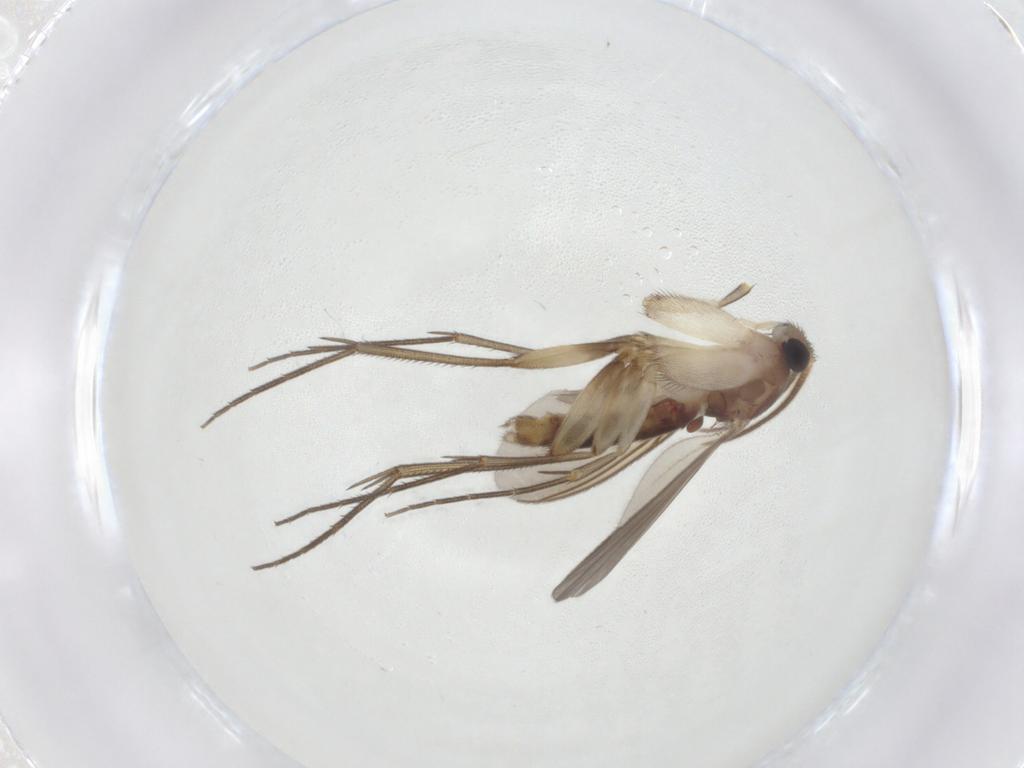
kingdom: Animalia
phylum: Arthropoda
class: Insecta
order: Diptera
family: Mycetophilidae
